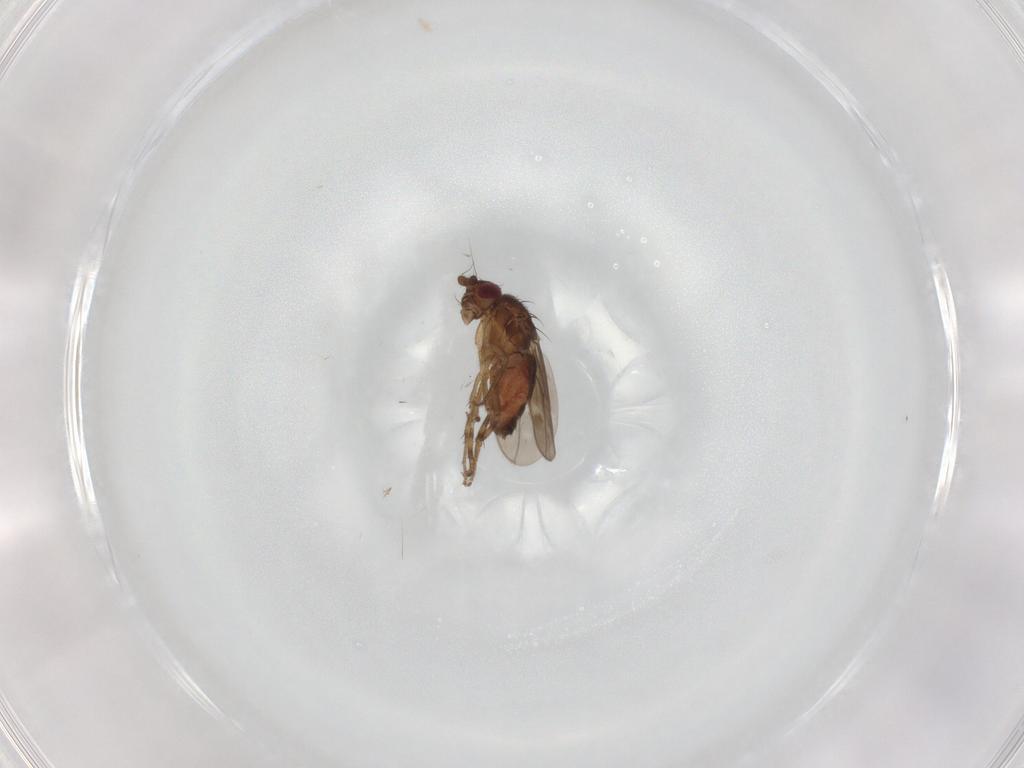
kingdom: Animalia
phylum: Arthropoda
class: Insecta
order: Diptera
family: Sphaeroceridae
